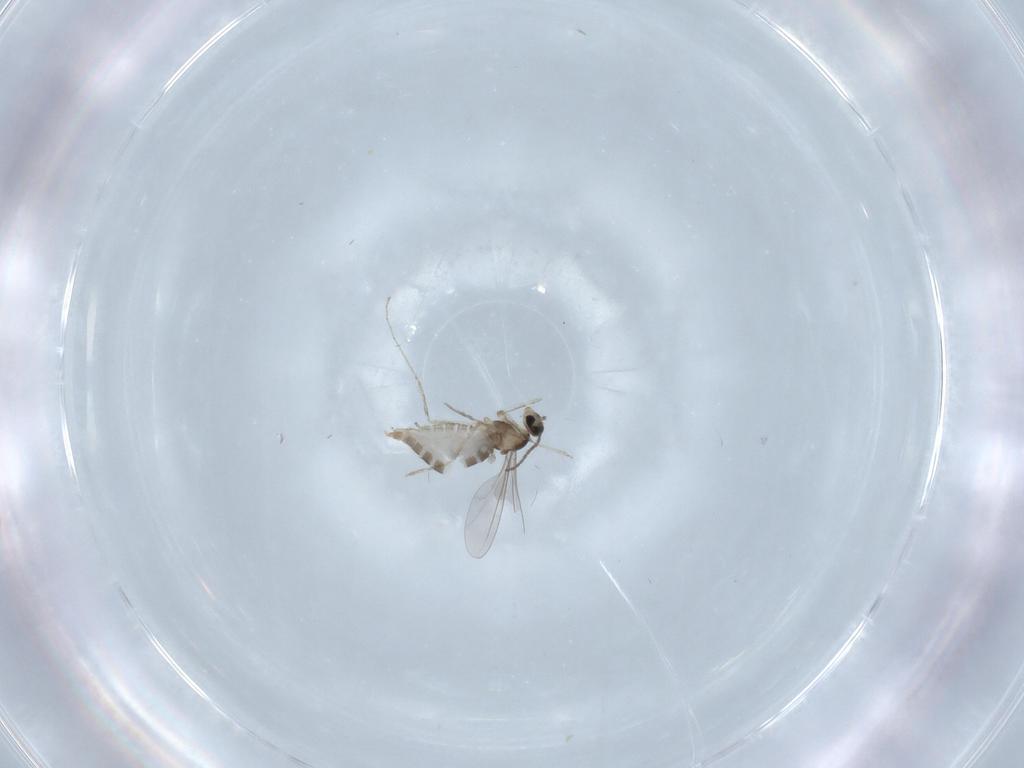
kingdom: Animalia
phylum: Arthropoda
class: Insecta
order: Diptera
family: Cecidomyiidae
